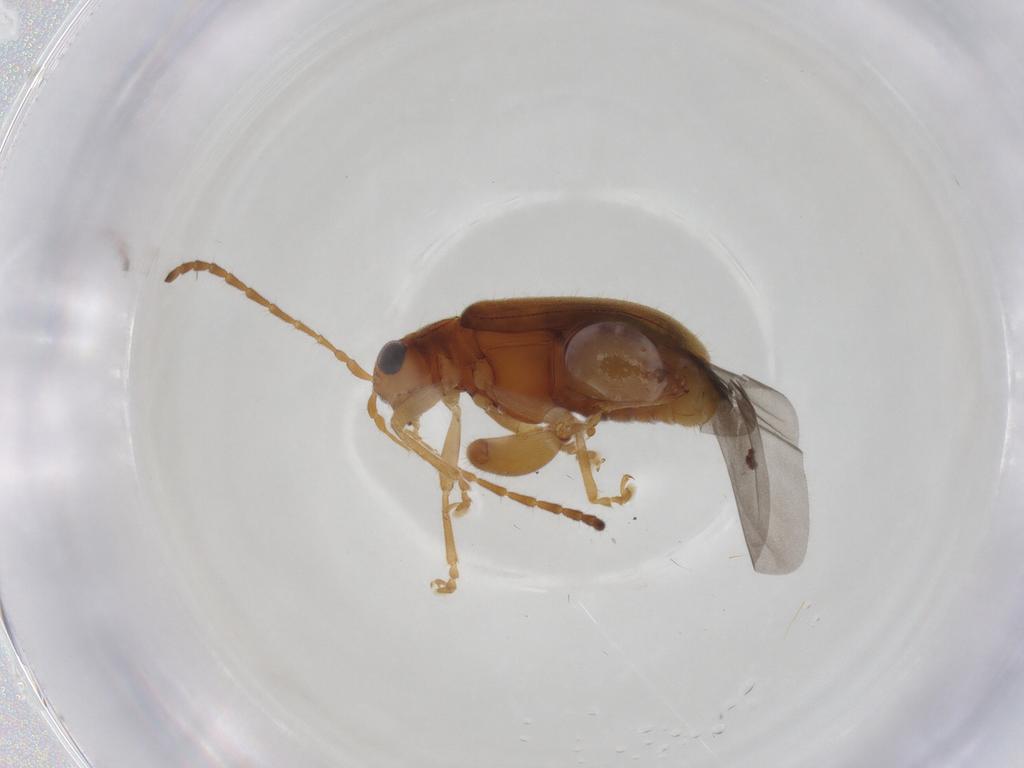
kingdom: Animalia
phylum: Arthropoda
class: Insecta
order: Coleoptera
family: Chrysomelidae
